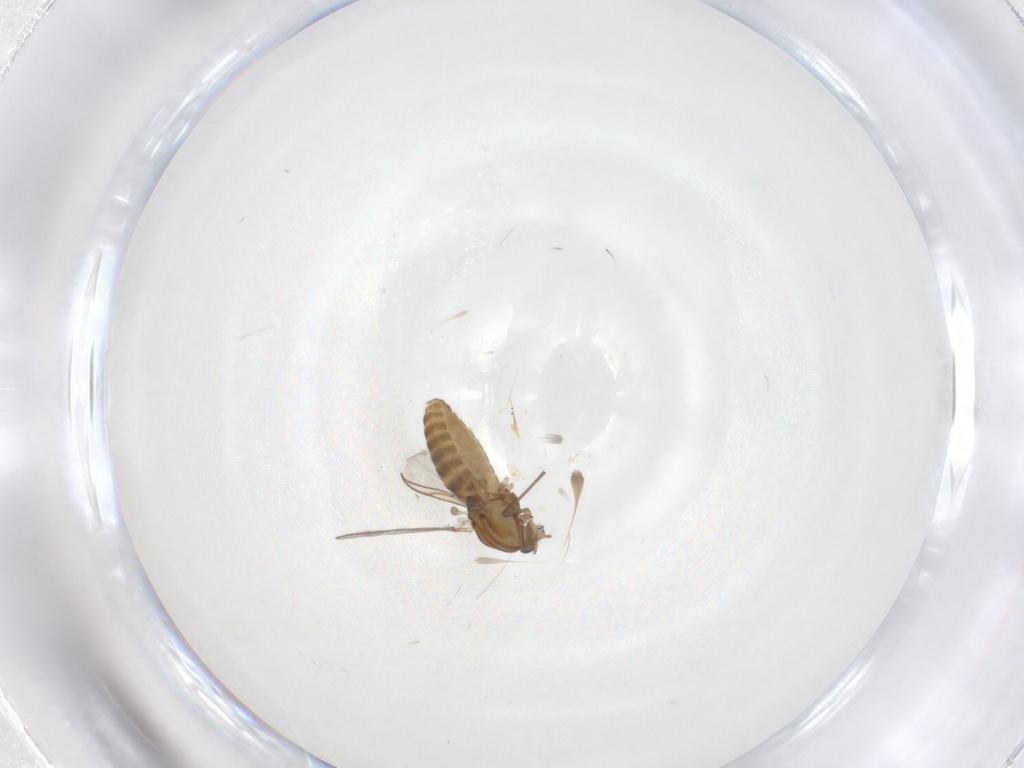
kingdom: Animalia
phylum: Arthropoda
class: Insecta
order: Diptera
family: Chironomidae
